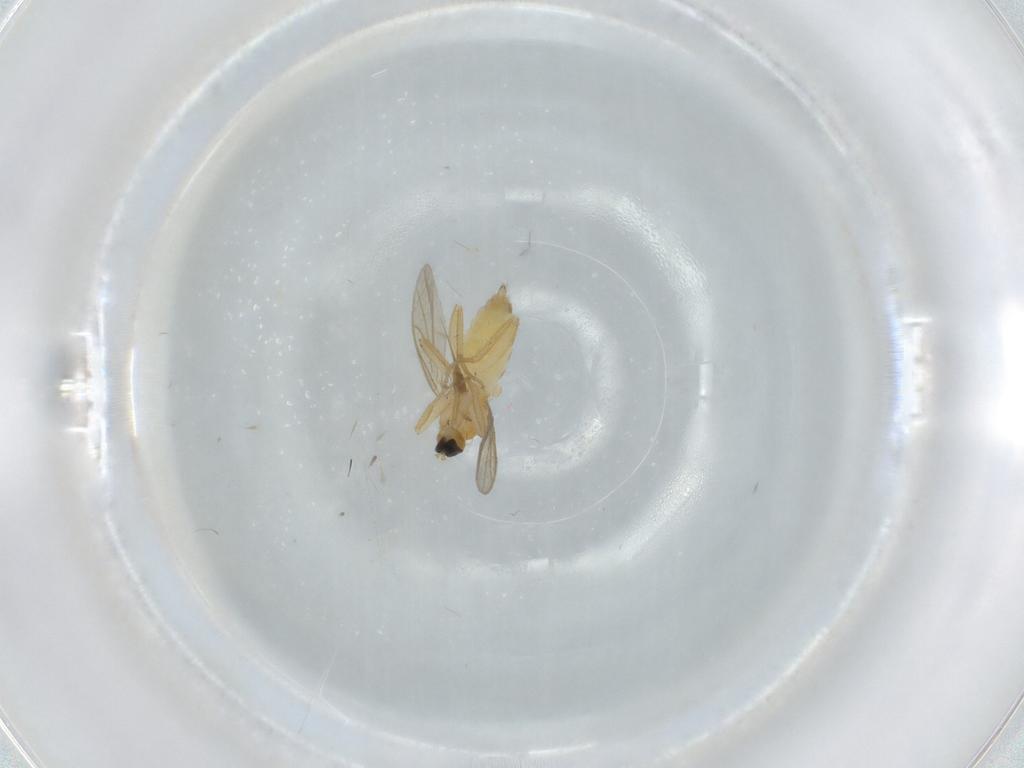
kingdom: Animalia
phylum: Arthropoda
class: Insecta
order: Diptera
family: Hybotidae
